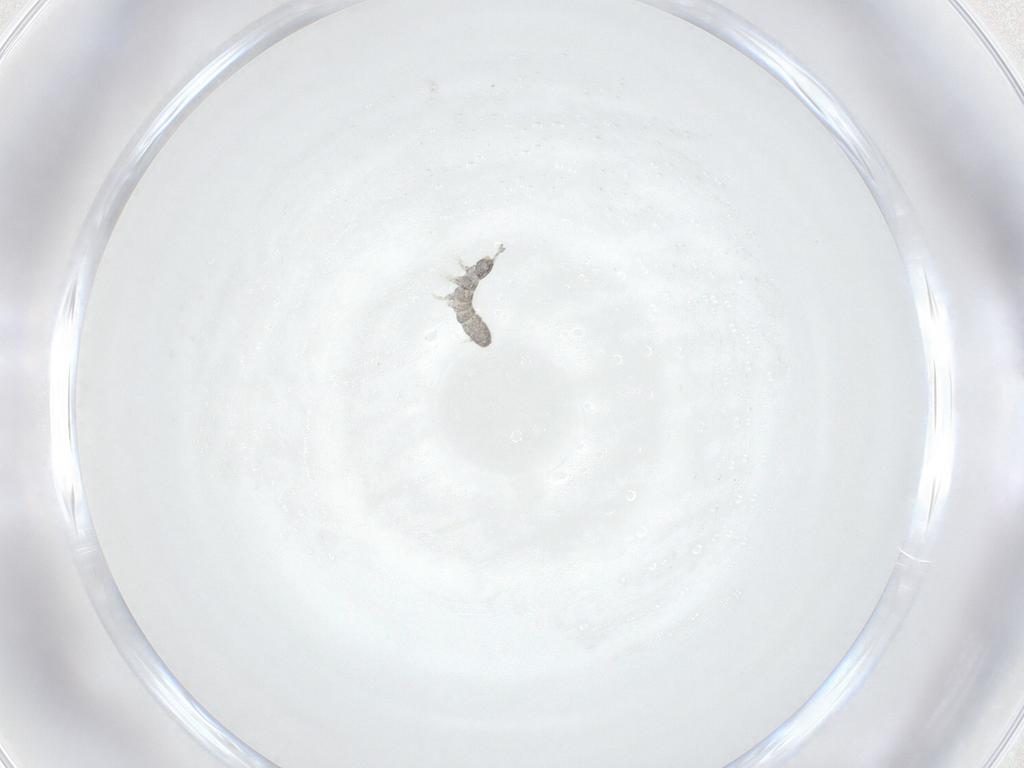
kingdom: Animalia
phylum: Arthropoda
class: Collembola
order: Entomobryomorpha
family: Isotomidae
